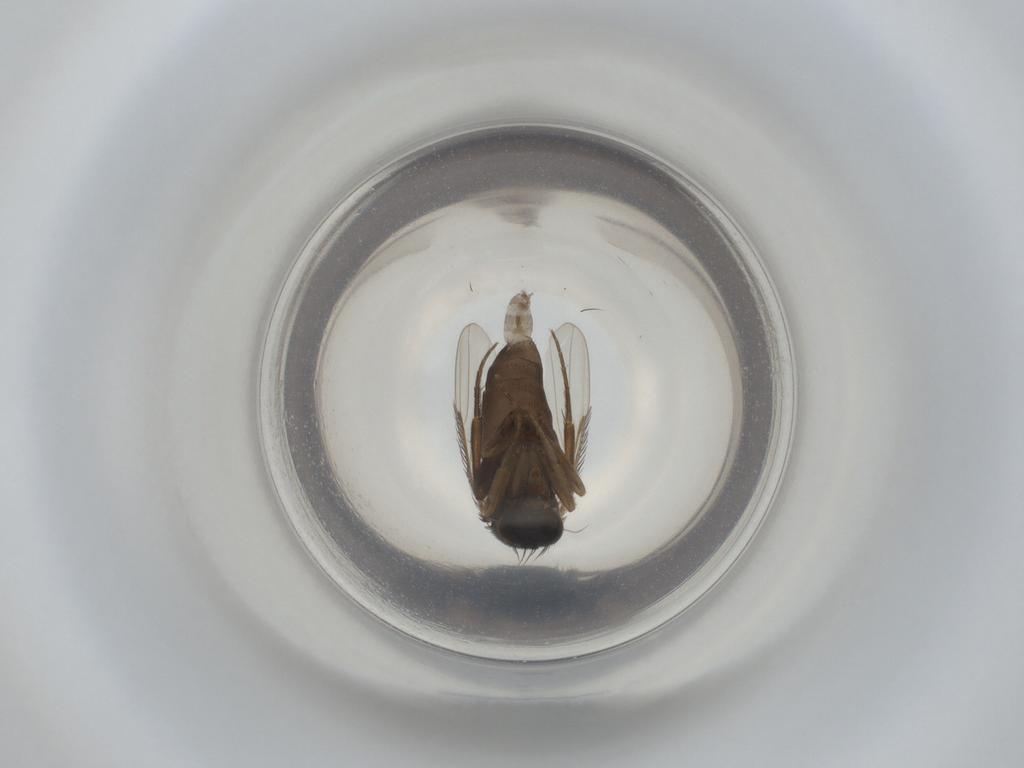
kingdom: Animalia
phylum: Arthropoda
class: Insecta
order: Diptera
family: Phoridae
